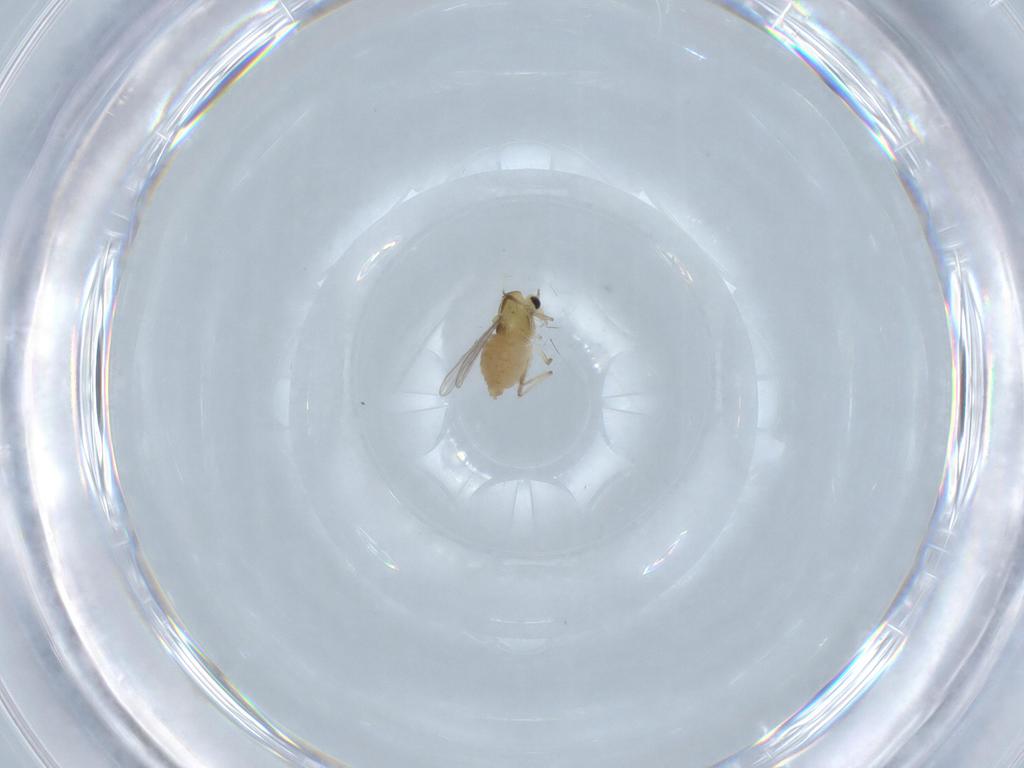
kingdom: Animalia
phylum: Arthropoda
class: Insecta
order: Diptera
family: Chironomidae
